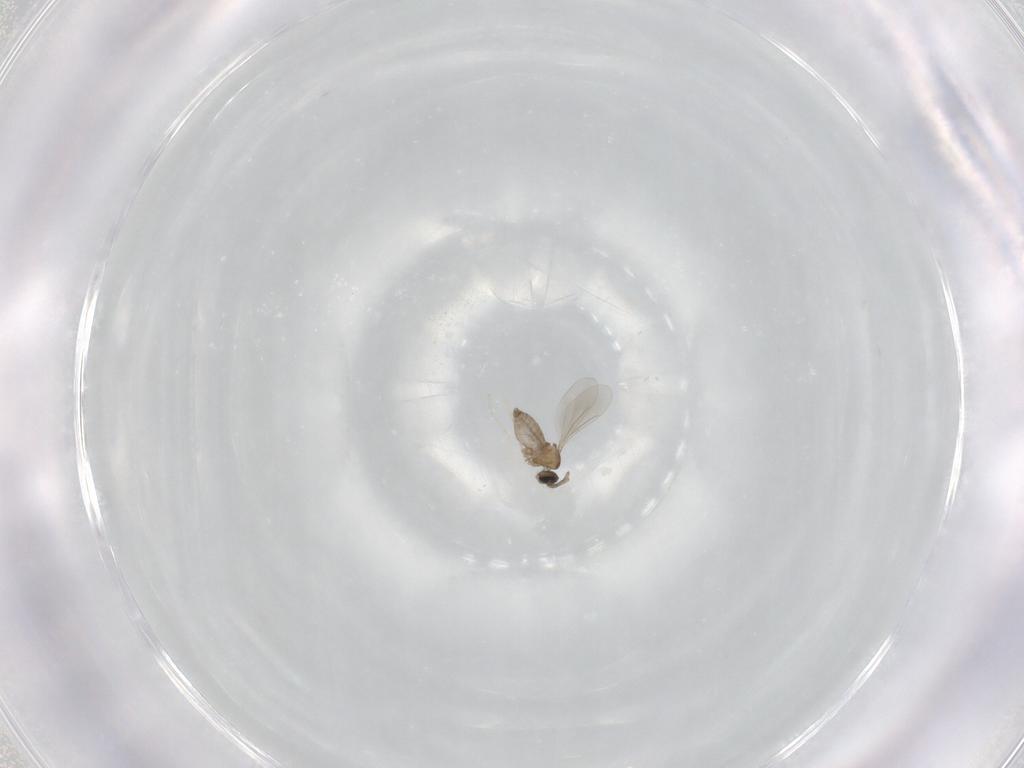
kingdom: Animalia
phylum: Arthropoda
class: Insecta
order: Diptera
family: Cecidomyiidae
